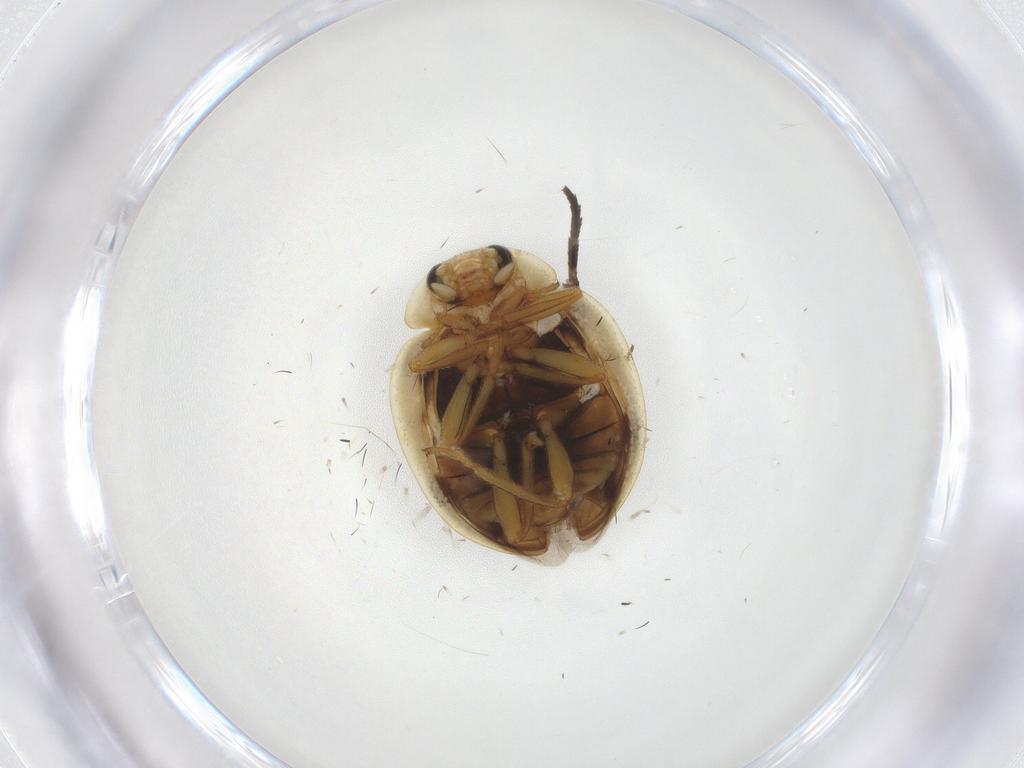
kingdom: Animalia
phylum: Arthropoda
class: Insecta
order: Coleoptera
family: Coccinellidae
